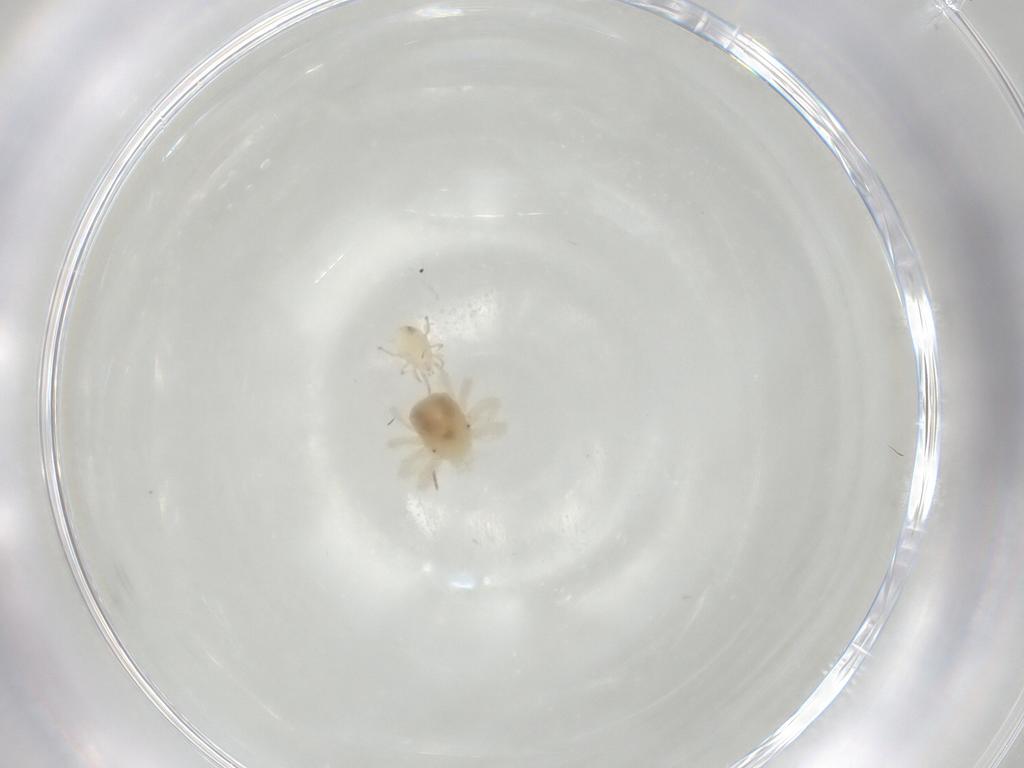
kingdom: Animalia
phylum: Arthropoda
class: Arachnida
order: Mesostigmata
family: Phytoseiidae
